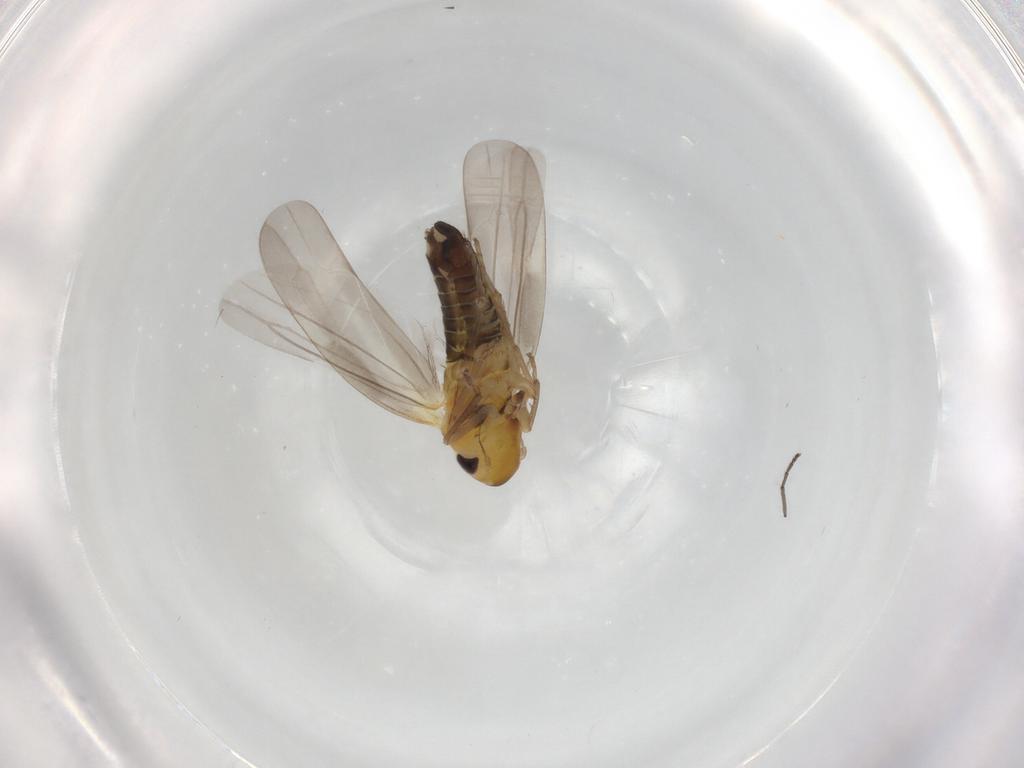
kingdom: Animalia
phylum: Arthropoda
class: Insecta
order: Hemiptera
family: Cicadellidae
